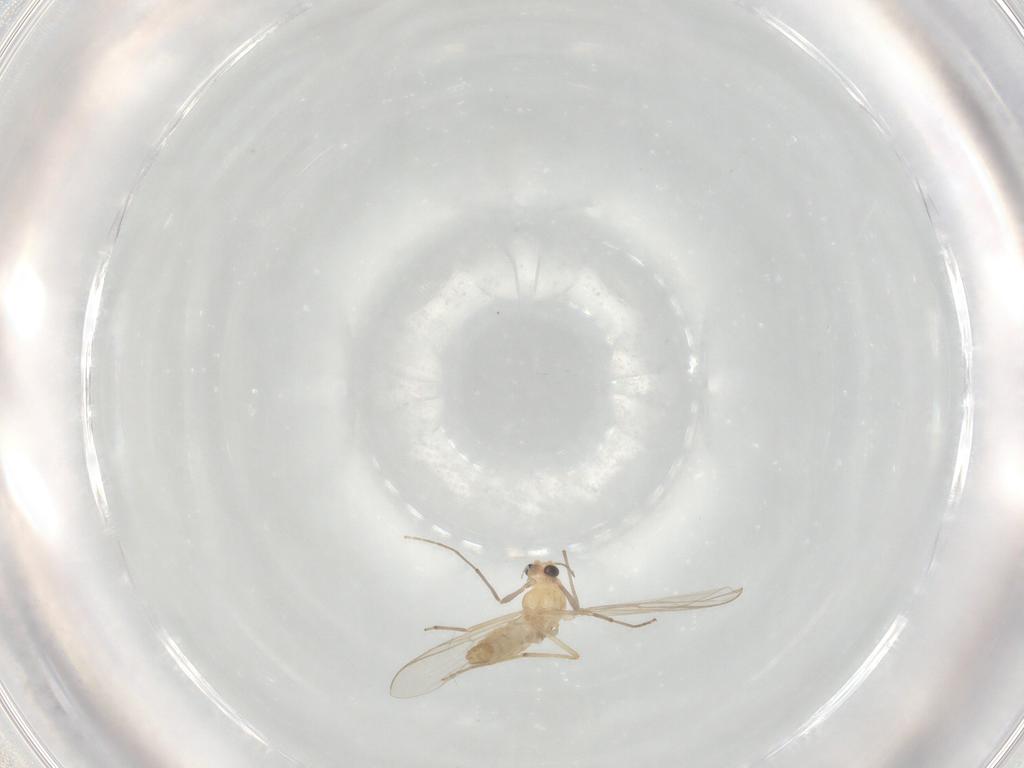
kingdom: Animalia
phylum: Arthropoda
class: Insecta
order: Diptera
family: Chironomidae
